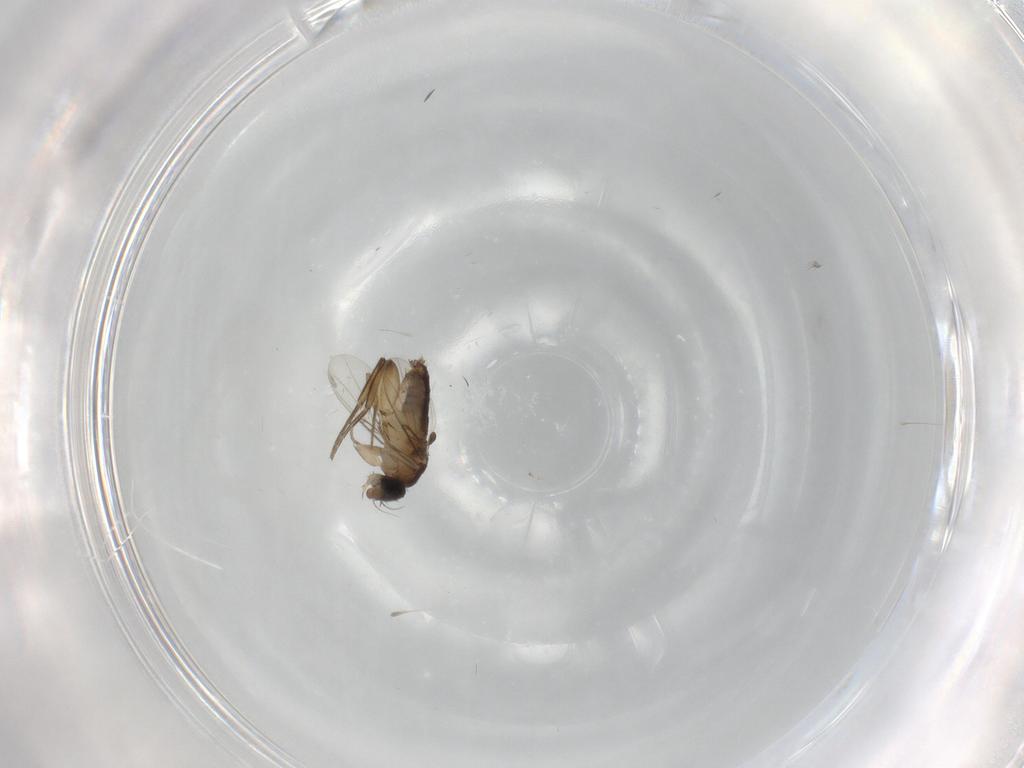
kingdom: Animalia
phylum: Arthropoda
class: Insecta
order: Diptera
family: Phoridae
